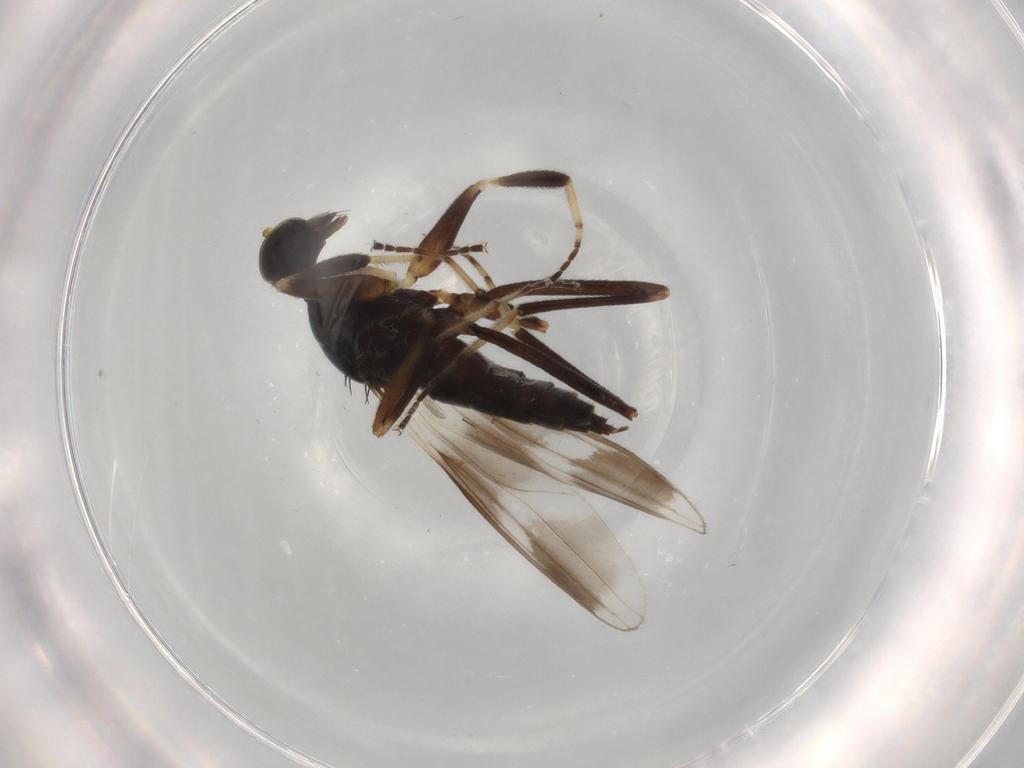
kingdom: Animalia
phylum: Arthropoda
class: Insecta
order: Diptera
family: Hybotidae
